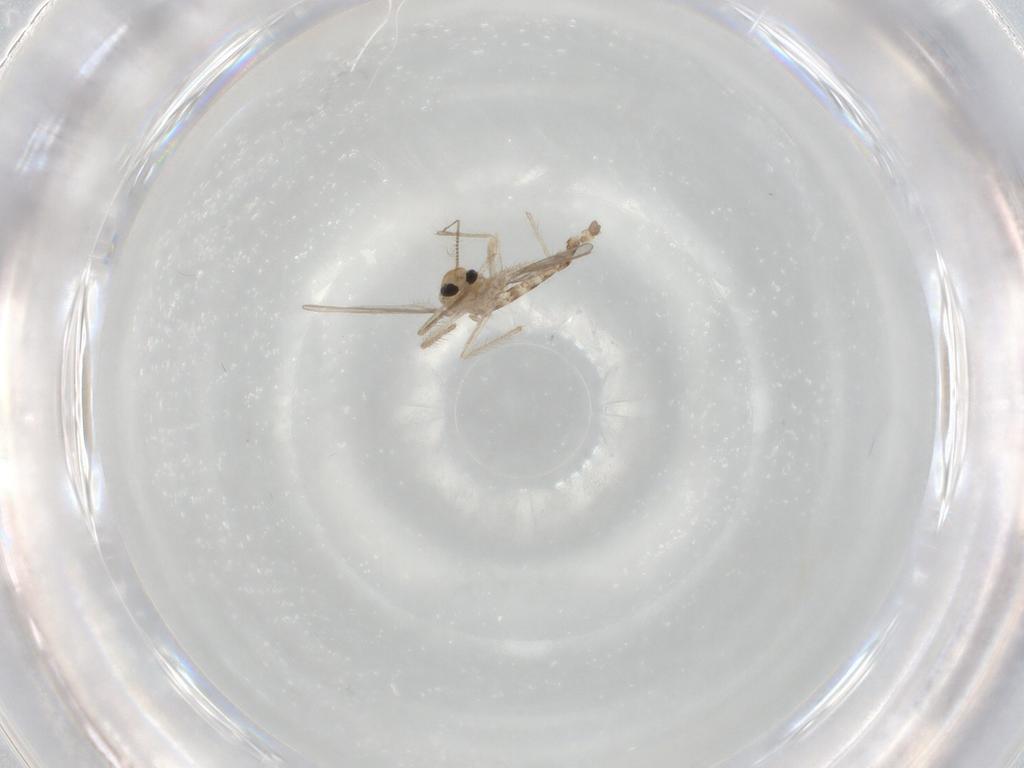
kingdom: Animalia
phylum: Arthropoda
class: Insecta
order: Diptera
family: Chironomidae
